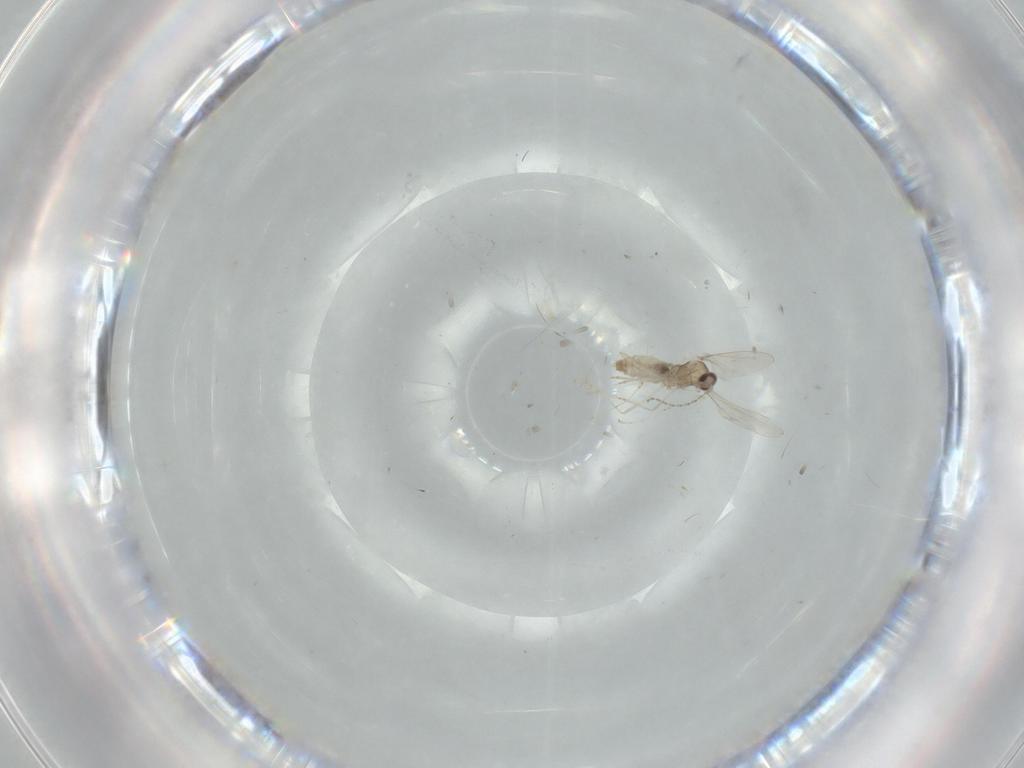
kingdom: Animalia
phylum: Arthropoda
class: Insecta
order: Diptera
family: Cecidomyiidae
